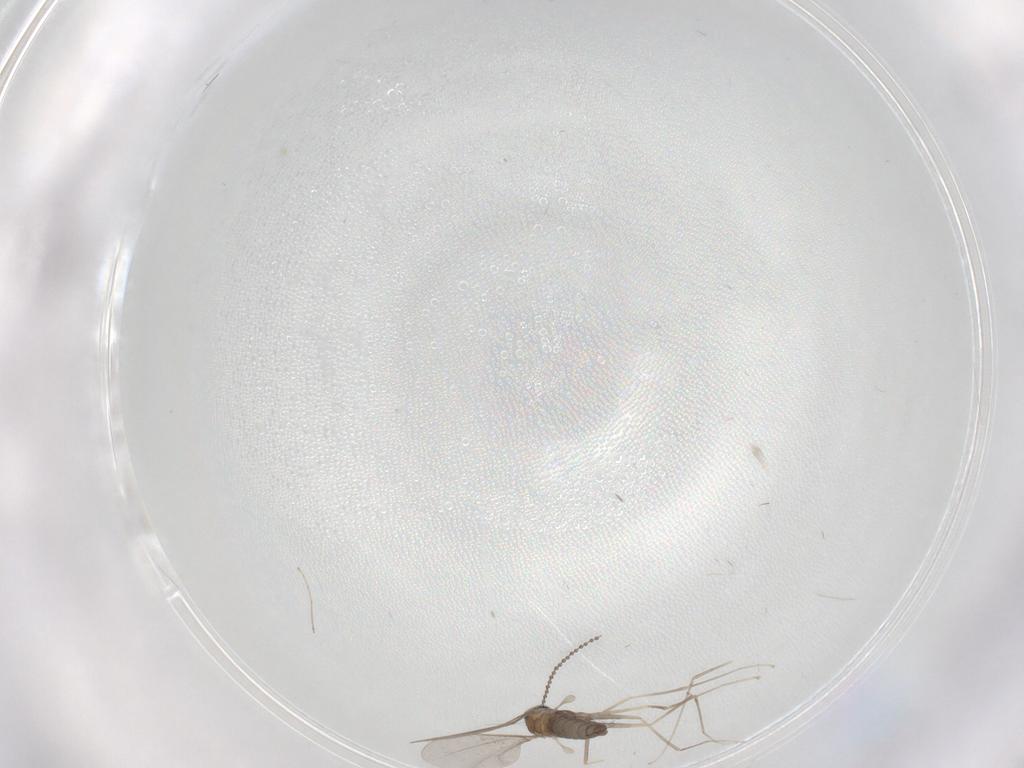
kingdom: Animalia
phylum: Arthropoda
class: Insecta
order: Diptera
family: Cecidomyiidae
